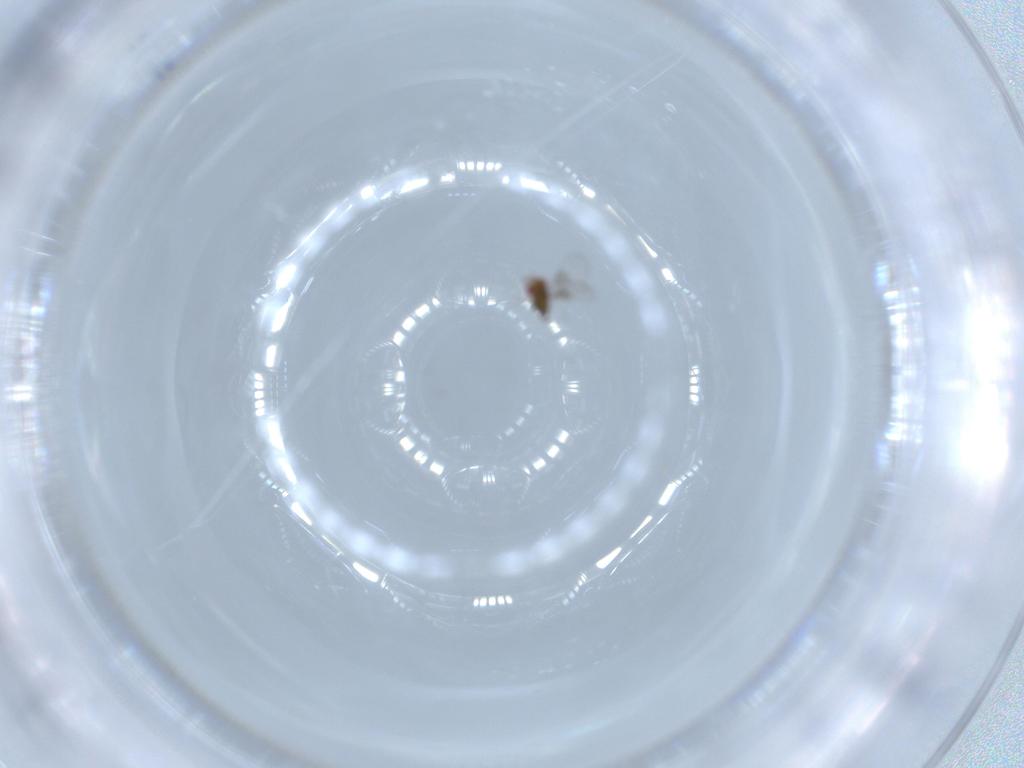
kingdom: Animalia
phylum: Arthropoda
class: Insecta
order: Hymenoptera
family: Trichogrammatidae
